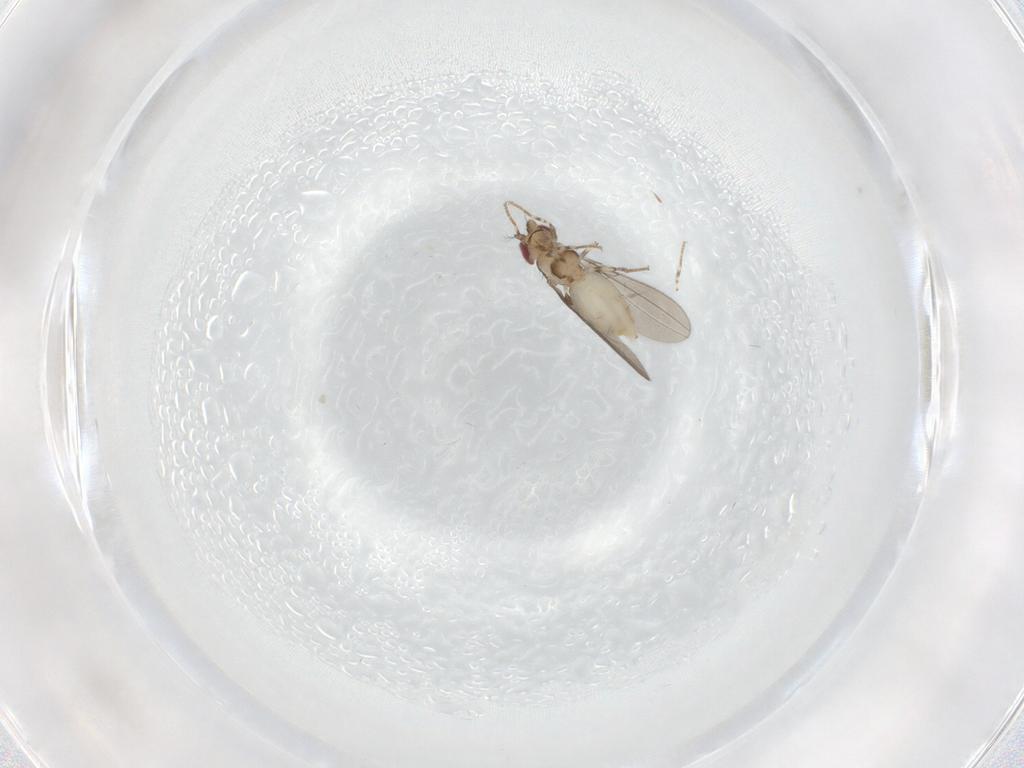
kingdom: Animalia
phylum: Arthropoda
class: Insecta
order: Diptera
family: Asteiidae
